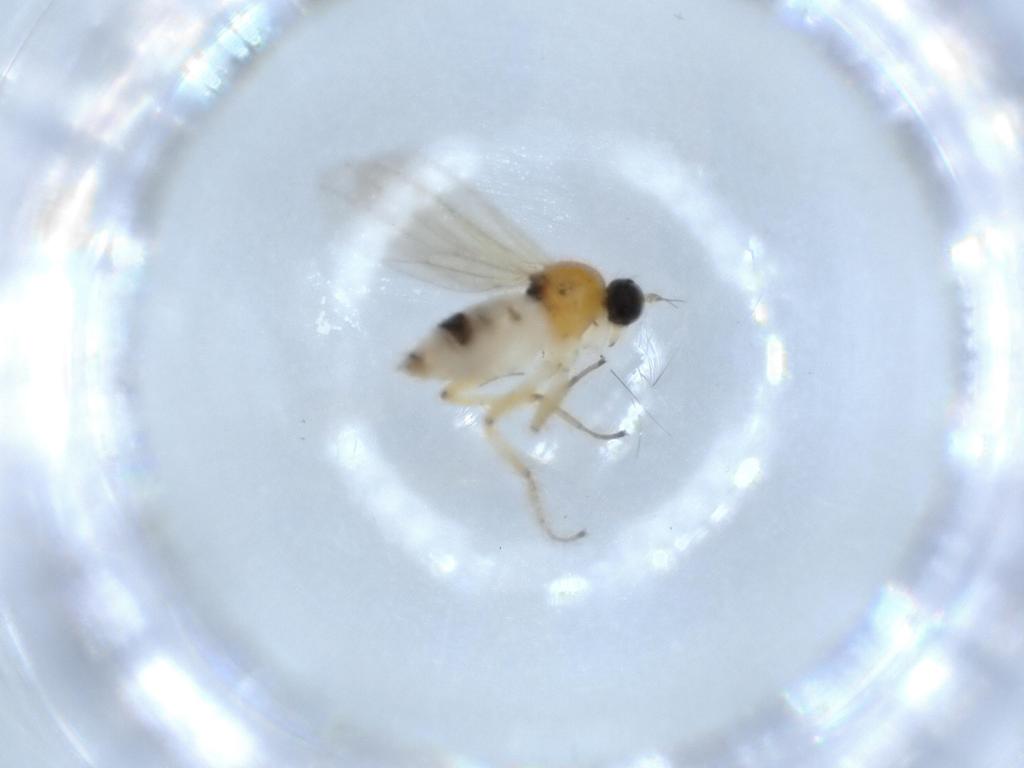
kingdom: Animalia
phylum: Arthropoda
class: Insecta
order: Diptera
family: Hybotidae
